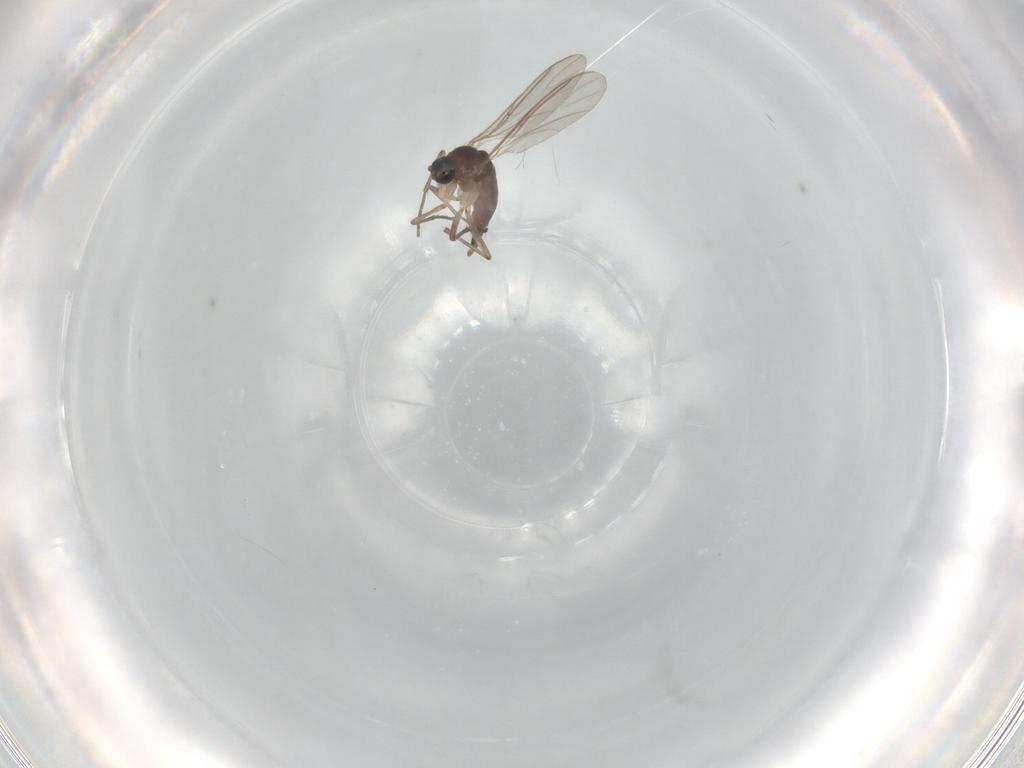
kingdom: Animalia
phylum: Arthropoda
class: Insecta
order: Diptera
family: Sciaridae
